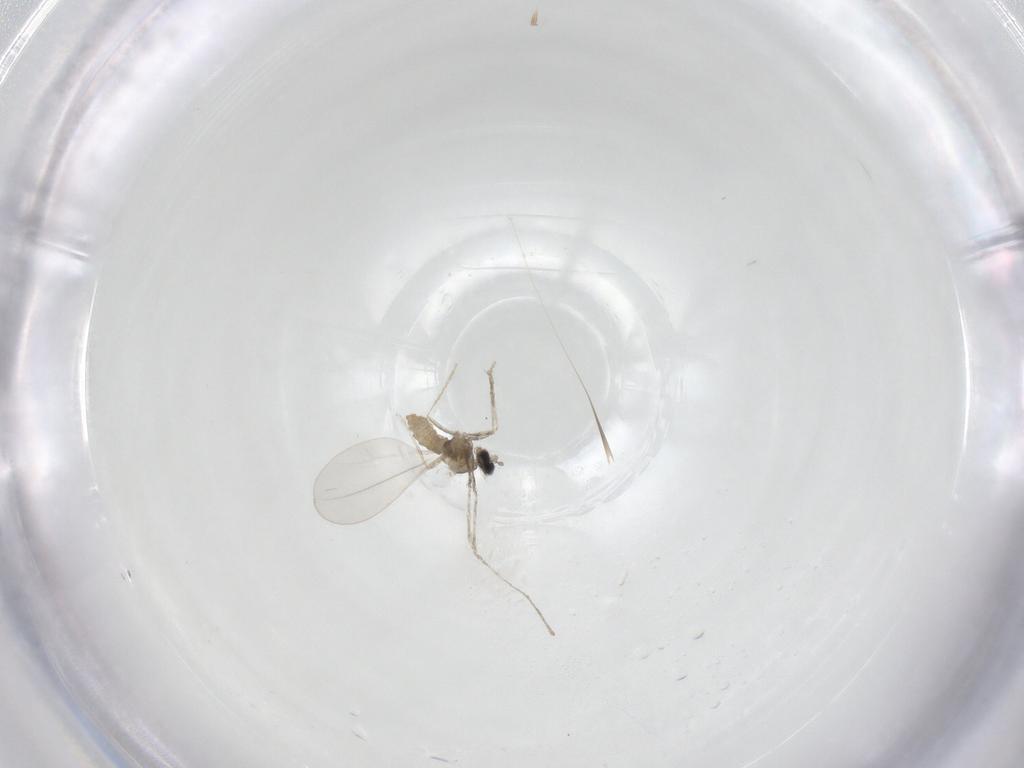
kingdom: Animalia
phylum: Arthropoda
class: Insecta
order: Diptera
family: Cecidomyiidae
